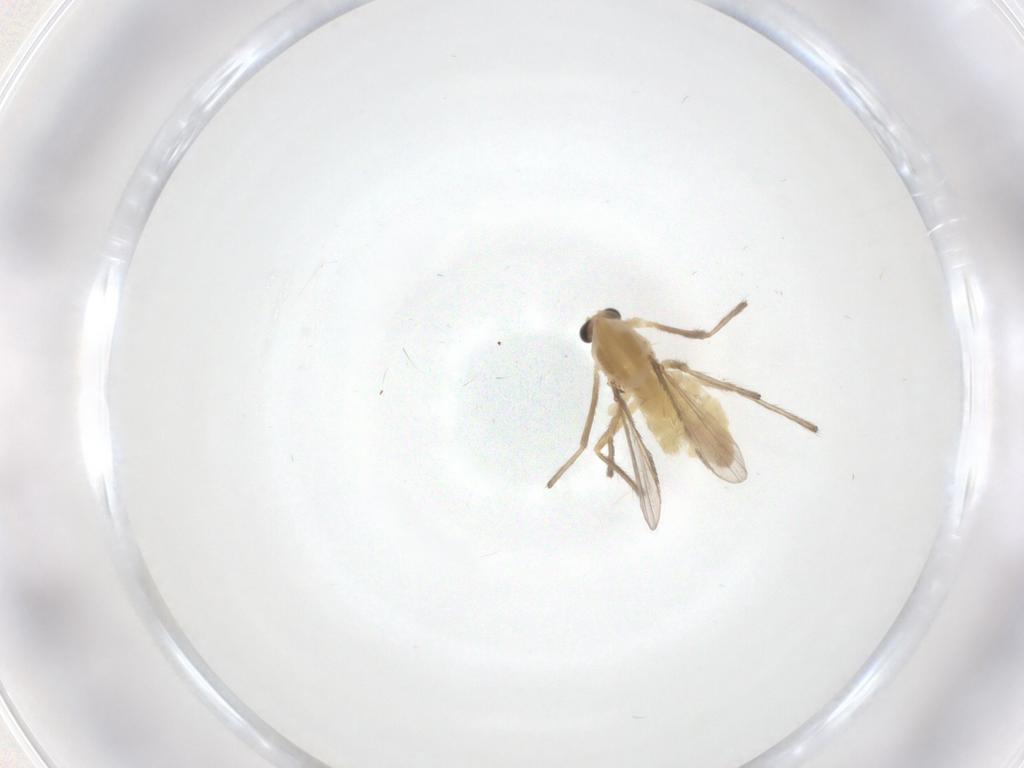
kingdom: Animalia
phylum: Arthropoda
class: Insecta
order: Diptera
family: Chironomidae
